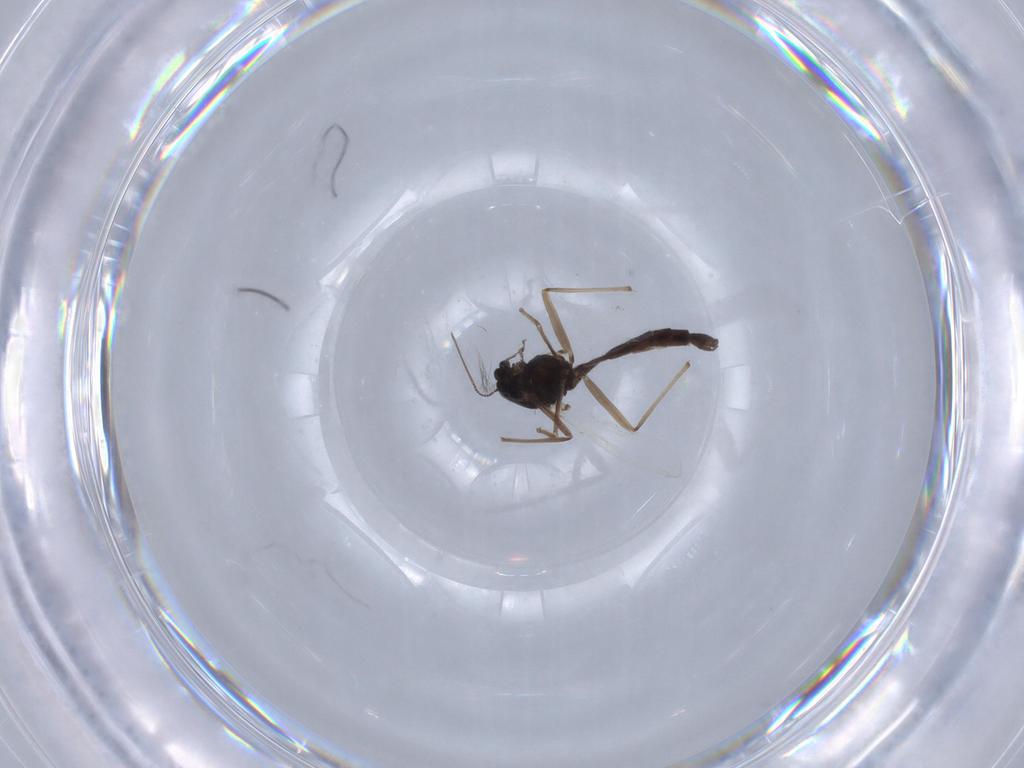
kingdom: Animalia
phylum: Arthropoda
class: Insecta
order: Diptera
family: Chironomidae
